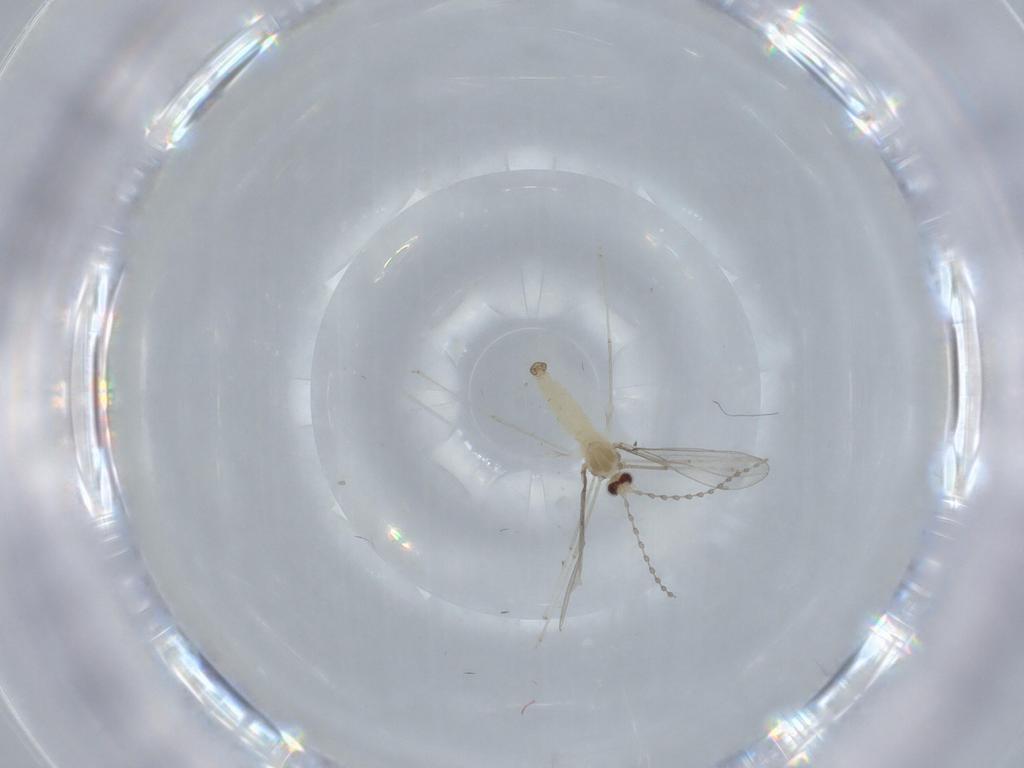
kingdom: Animalia
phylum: Arthropoda
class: Insecta
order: Diptera
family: Cecidomyiidae
